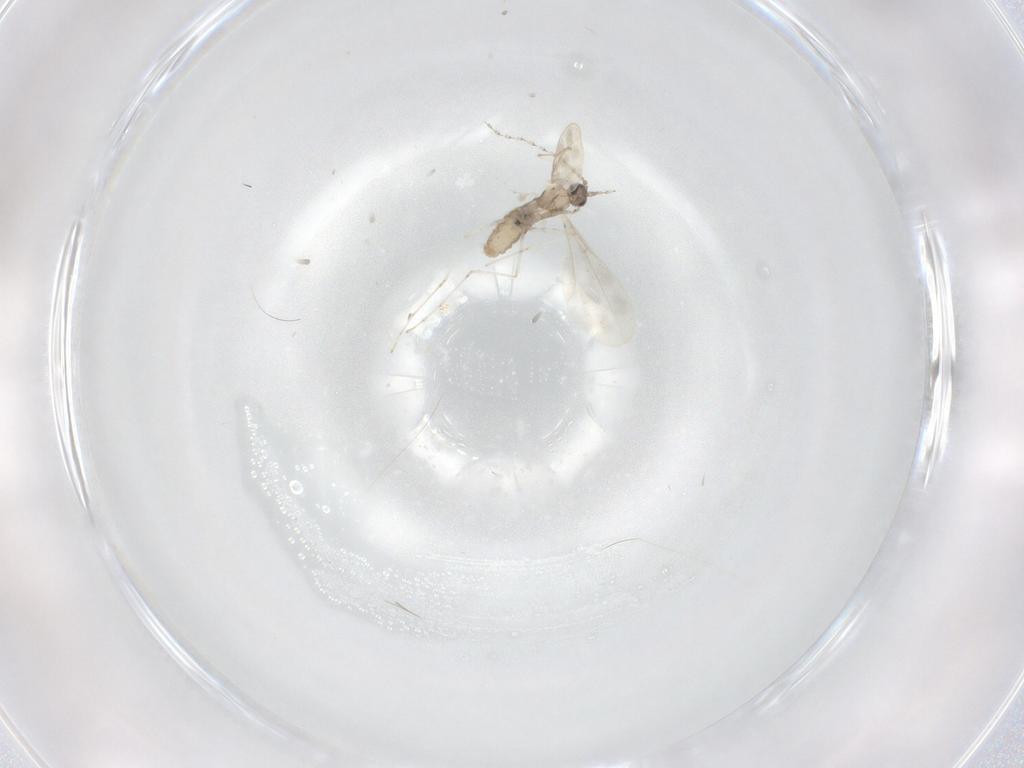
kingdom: Animalia
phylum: Arthropoda
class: Insecta
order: Diptera
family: Cecidomyiidae
